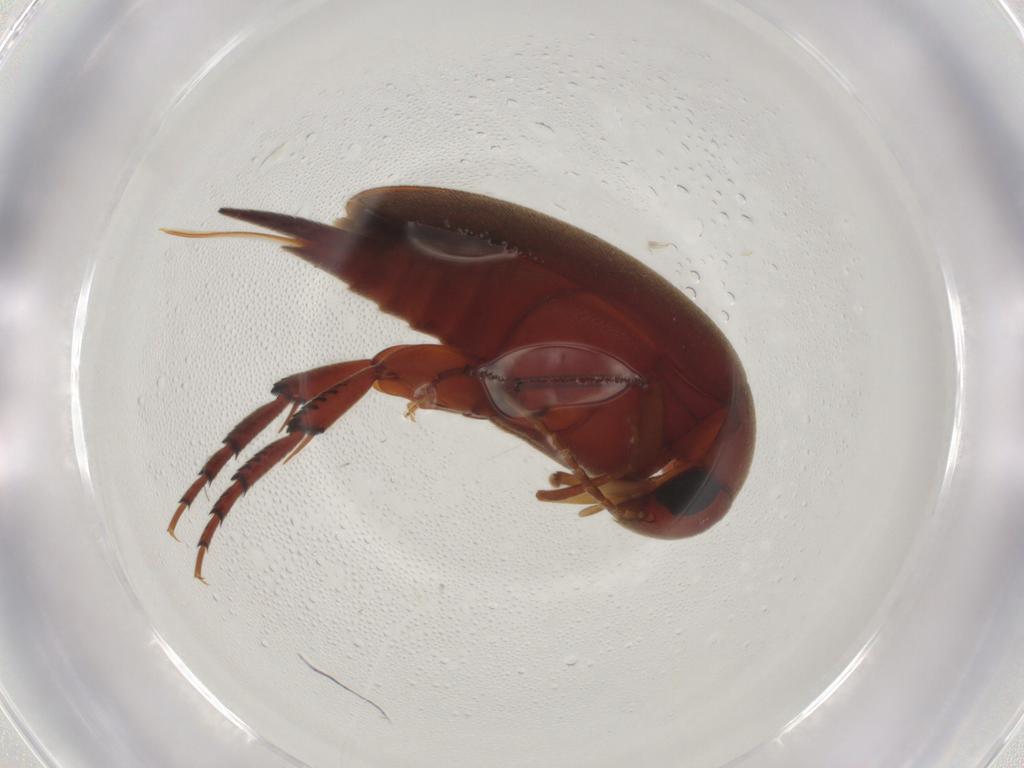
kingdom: Animalia
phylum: Arthropoda
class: Insecta
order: Coleoptera
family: Mordellidae
